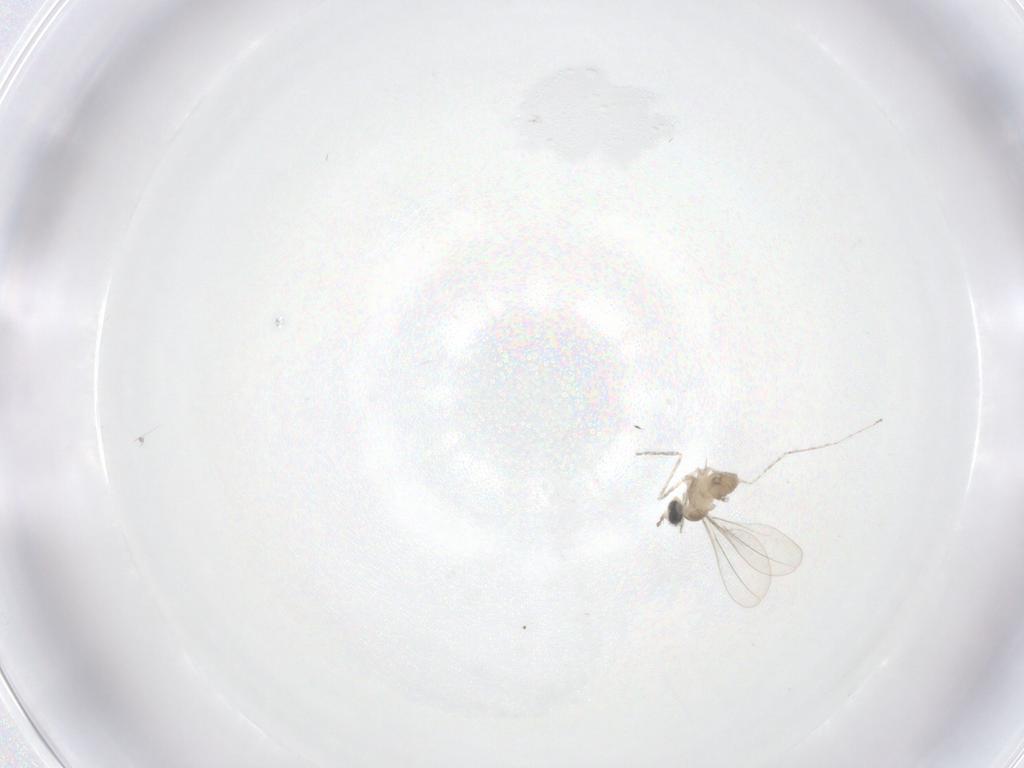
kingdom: Animalia
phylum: Arthropoda
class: Insecta
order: Diptera
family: Cecidomyiidae
